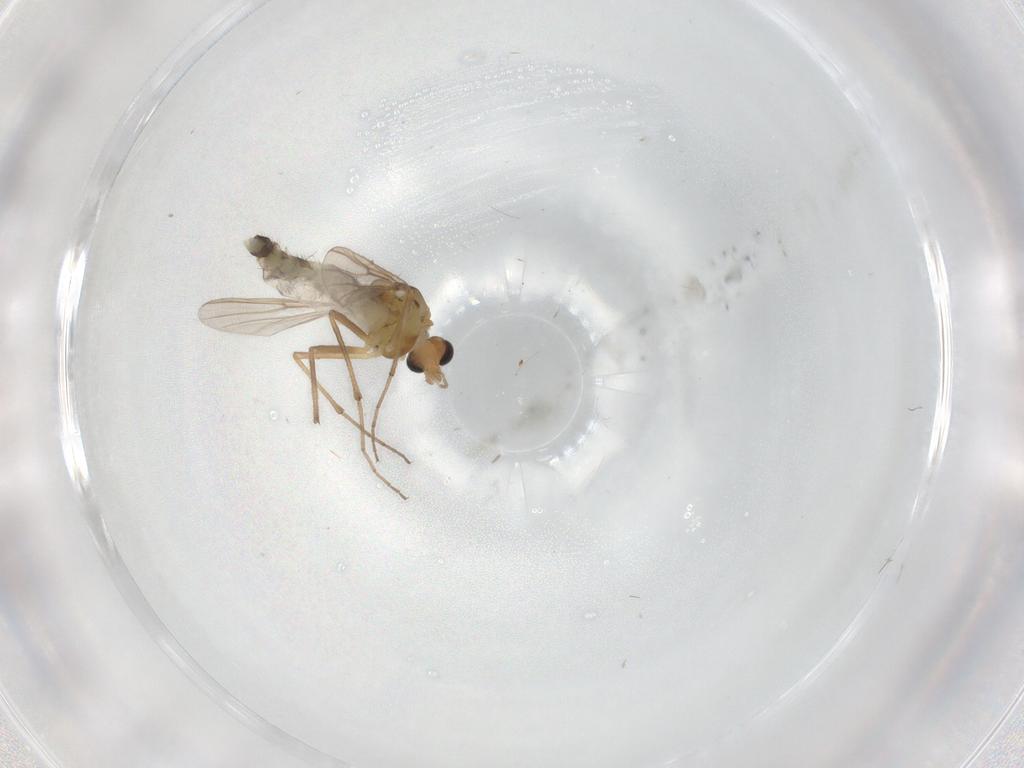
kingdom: Animalia
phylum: Arthropoda
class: Insecta
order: Diptera
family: Chironomidae
